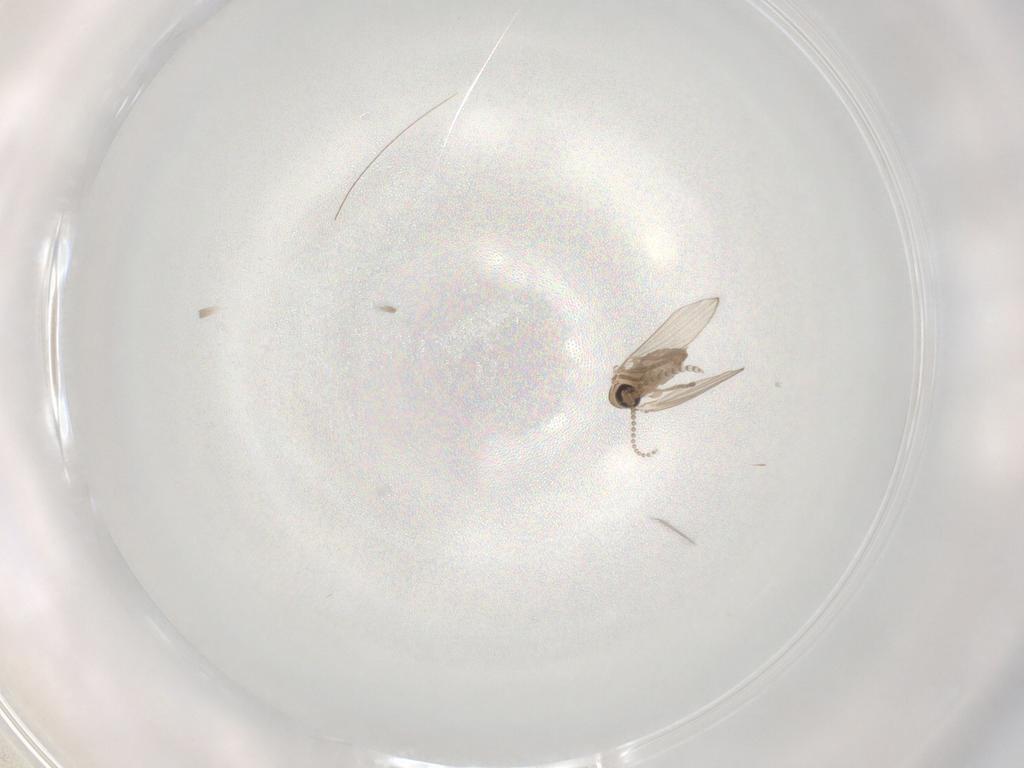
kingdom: Animalia
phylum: Arthropoda
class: Insecta
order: Diptera
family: Psychodidae
